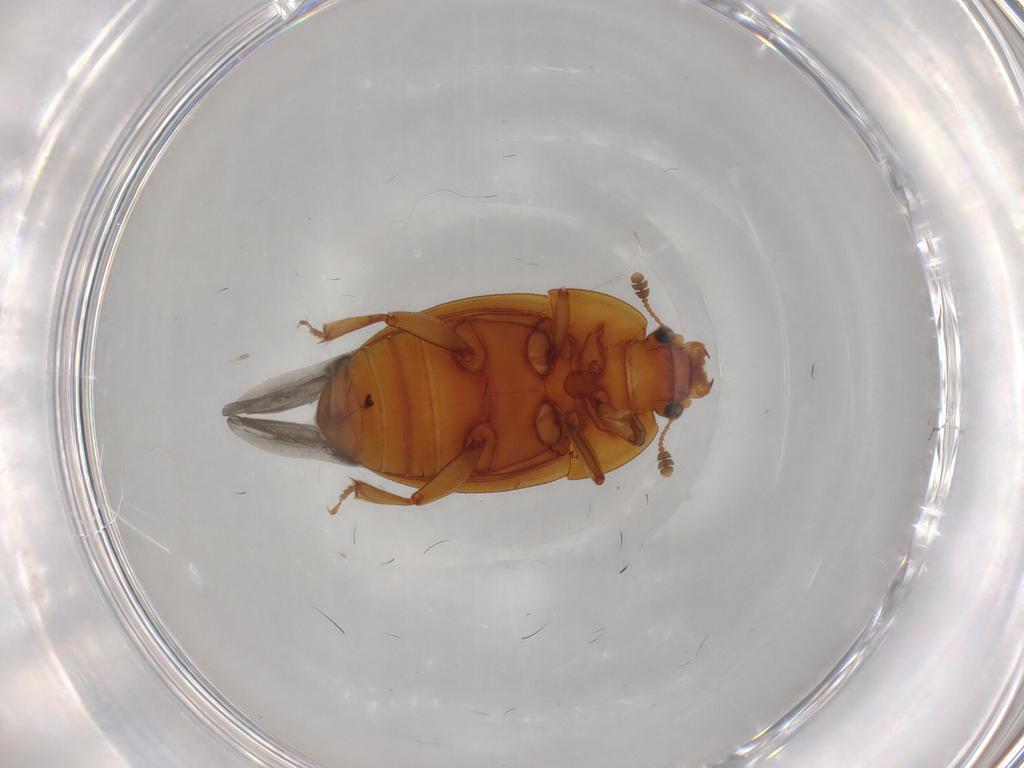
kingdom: Animalia
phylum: Arthropoda
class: Insecta
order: Coleoptera
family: Nitidulidae
